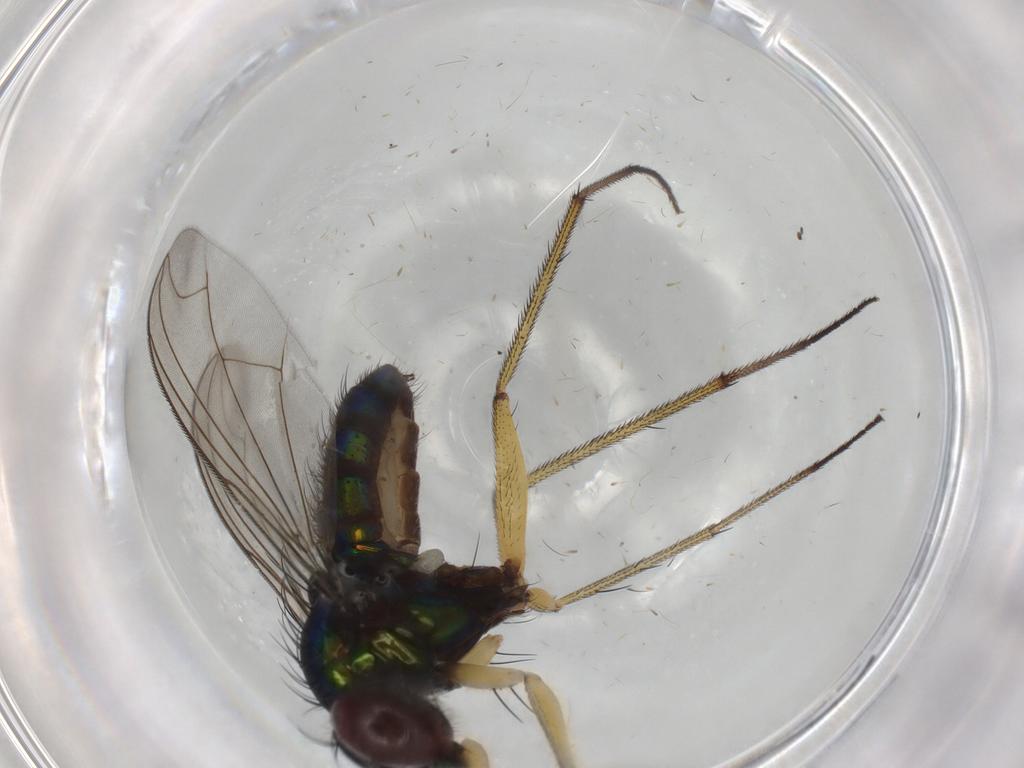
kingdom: Animalia
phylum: Arthropoda
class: Insecta
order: Diptera
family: Dolichopodidae
